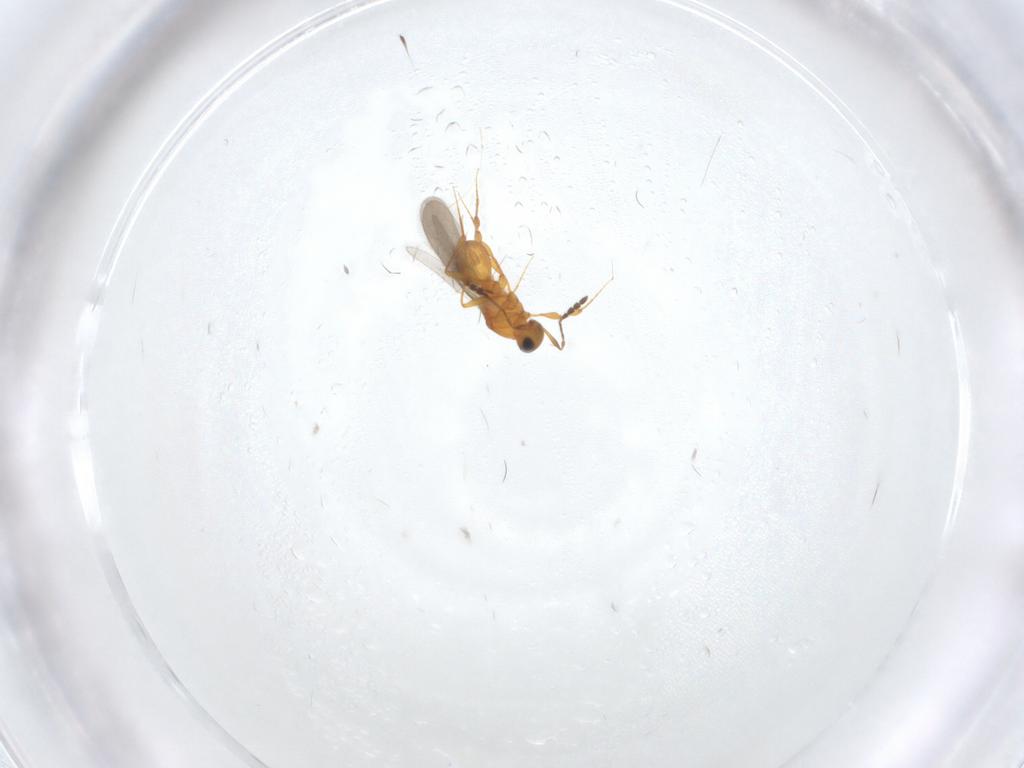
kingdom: Animalia
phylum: Arthropoda
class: Insecta
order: Hymenoptera
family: Platygastridae
